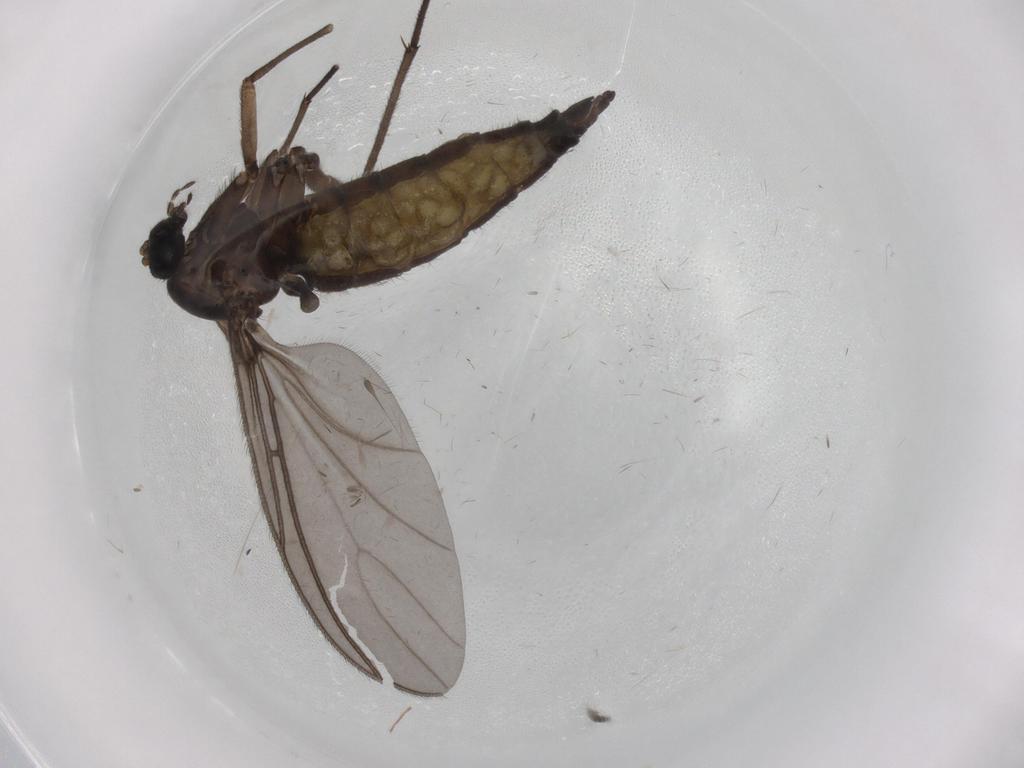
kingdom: Animalia
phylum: Arthropoda
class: Insecta
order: Diptera
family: Sciaridae
